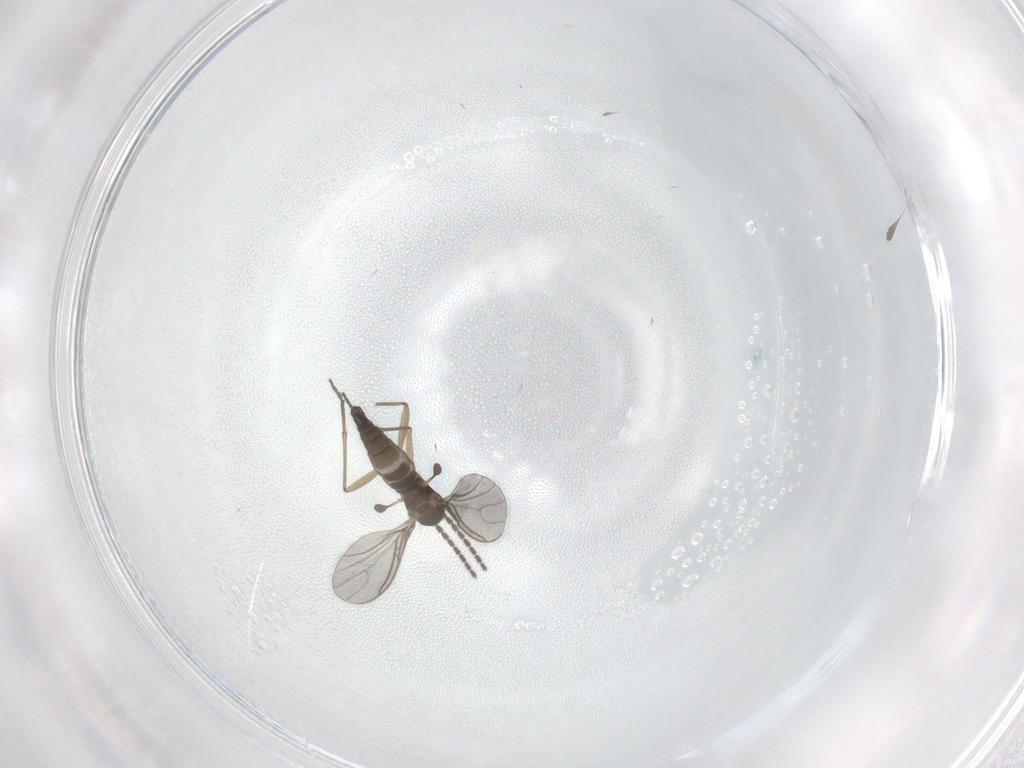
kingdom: Animalia
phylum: Arthropoda
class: Insecta
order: Diptera
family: Sciaridae
